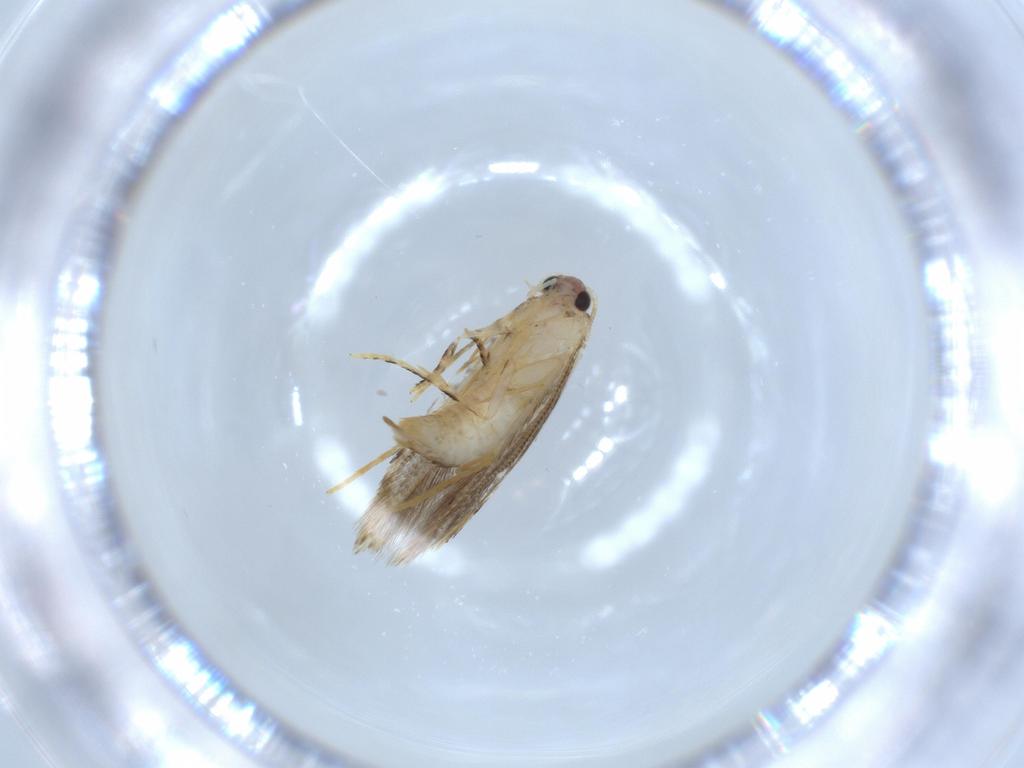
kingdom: Animalia
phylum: Arthropoda
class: Insecta
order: Lepidoptera
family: Tineidae
